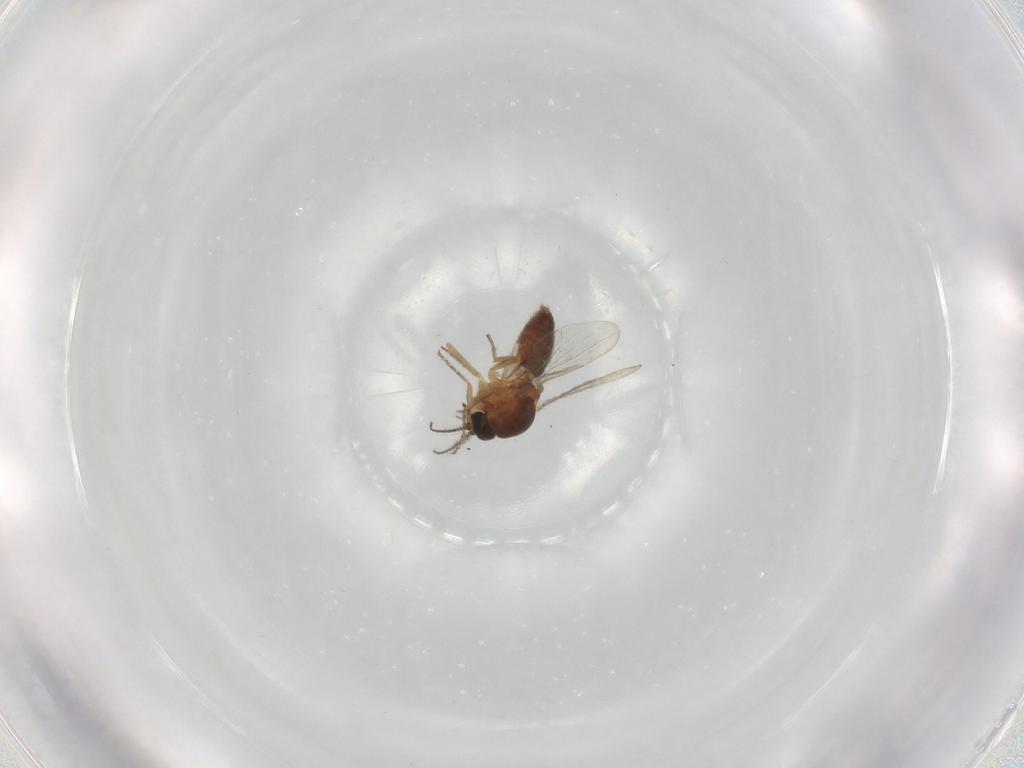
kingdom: Animalia
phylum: Arthropoda
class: Insecta
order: Diptera
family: Ceratopogonidae
